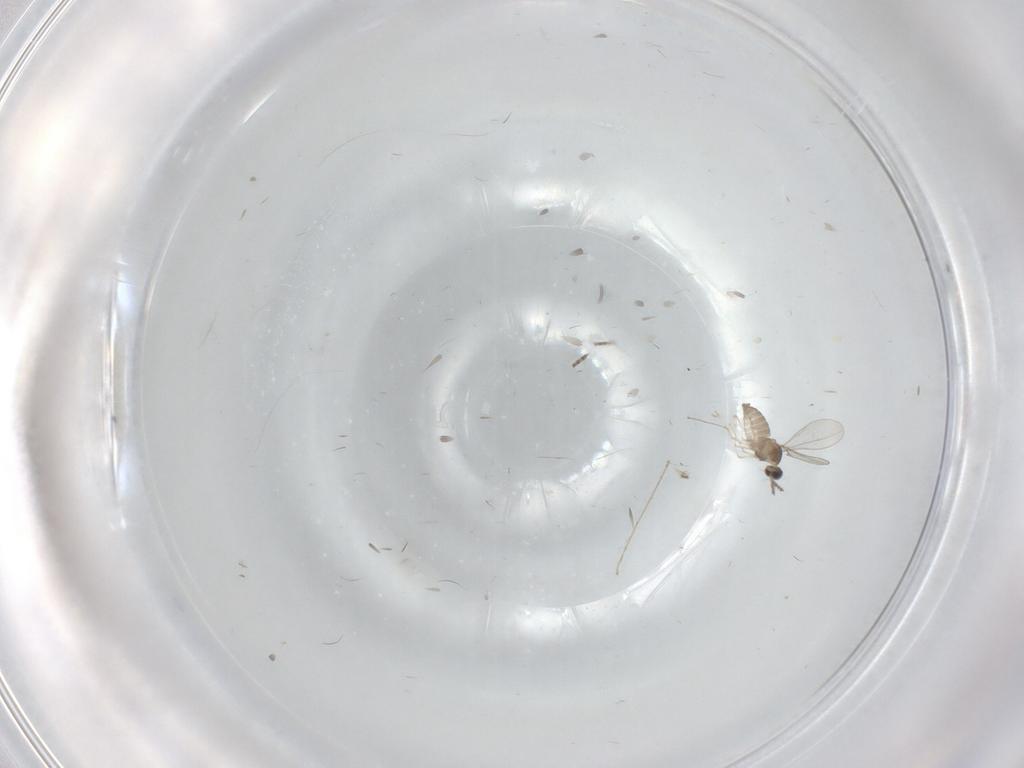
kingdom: Animalia
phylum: Arthropoda
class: Insecta
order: Diptera
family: Cecidomyiidae
